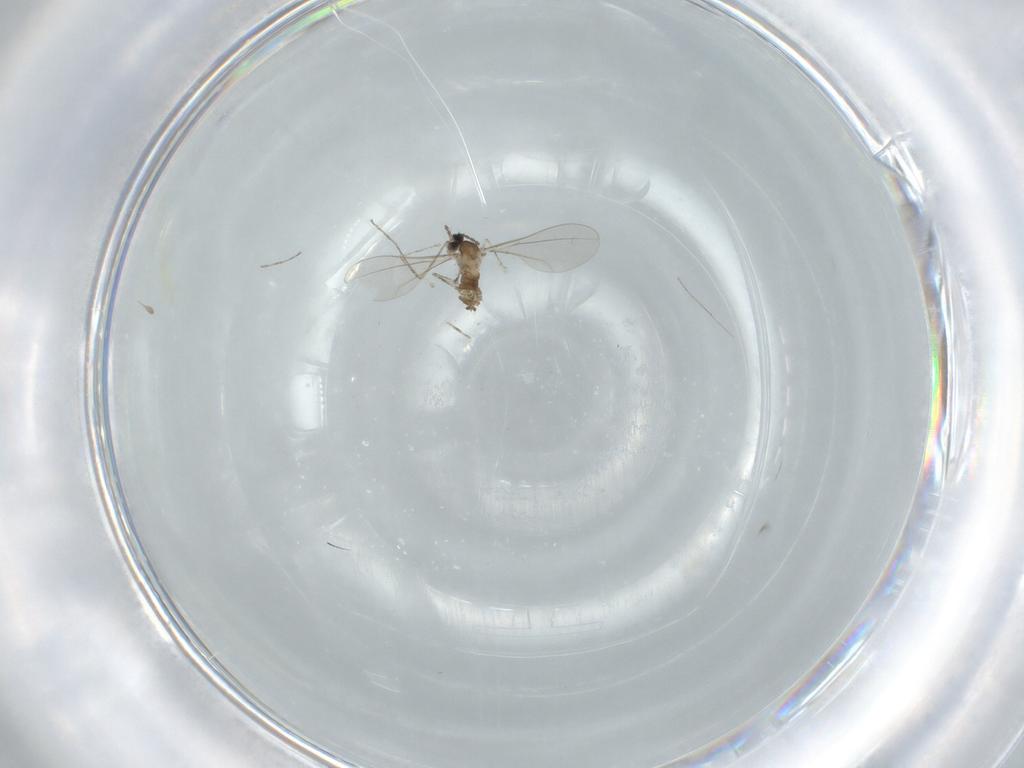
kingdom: Animalia
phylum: Arthropoda
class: Insecta
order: Diptera
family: Cecidomyiidae
